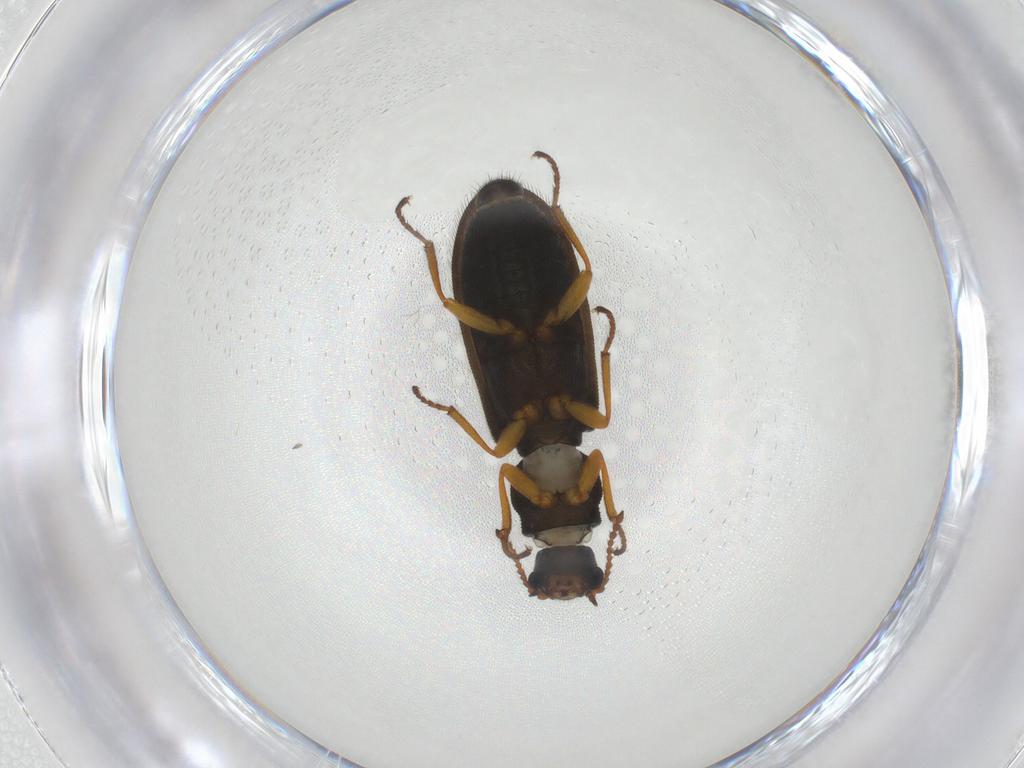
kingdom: Animalia
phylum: Arthropoda
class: Insecta
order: Coleoptera
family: Melyridae
